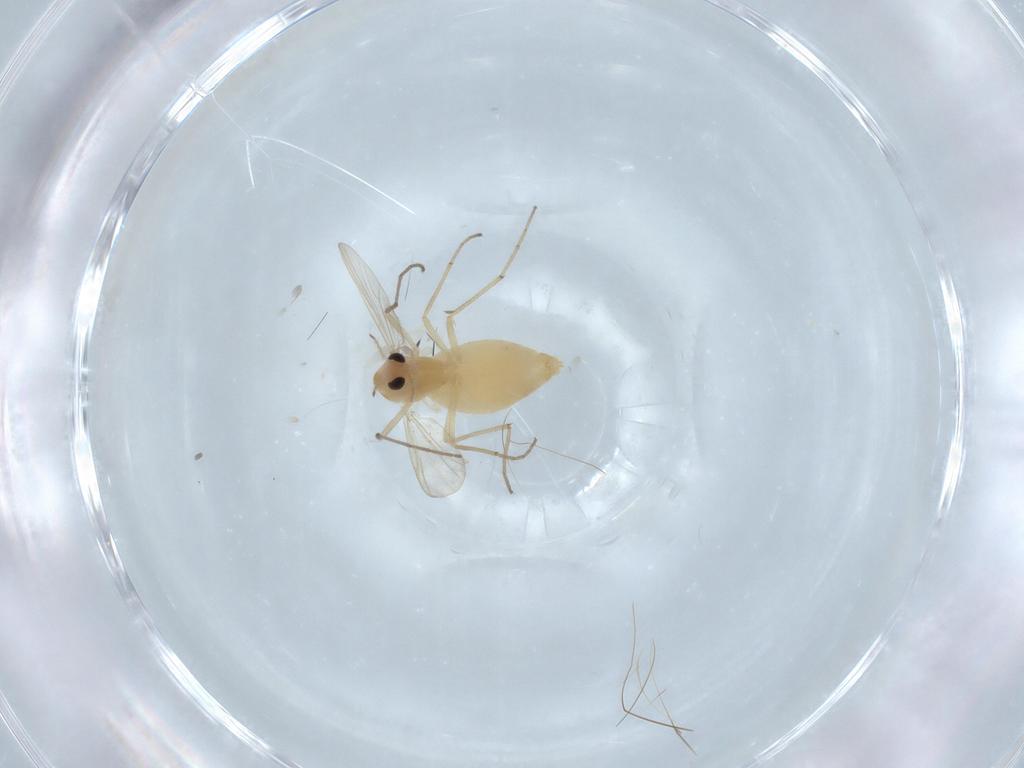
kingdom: Animalia
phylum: Arthropoda
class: Insecta
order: Diptera
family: Chironomidae
